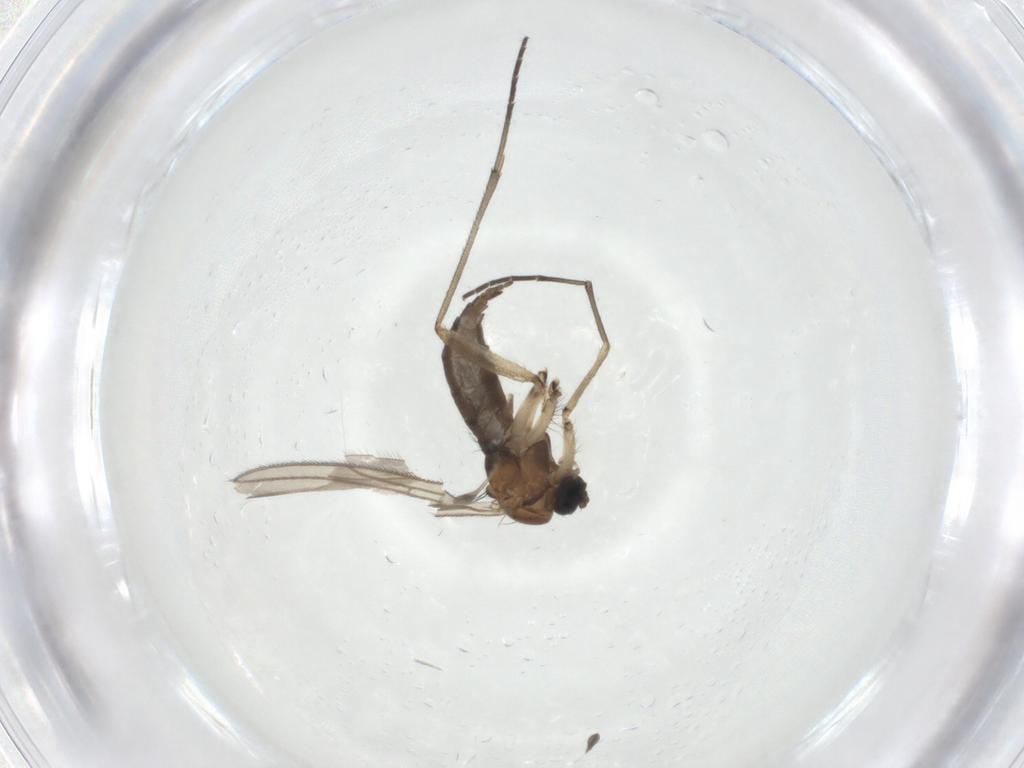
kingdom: Animalia
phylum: Arthropoda
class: Insecta
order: Diptera
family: Sciaridae
